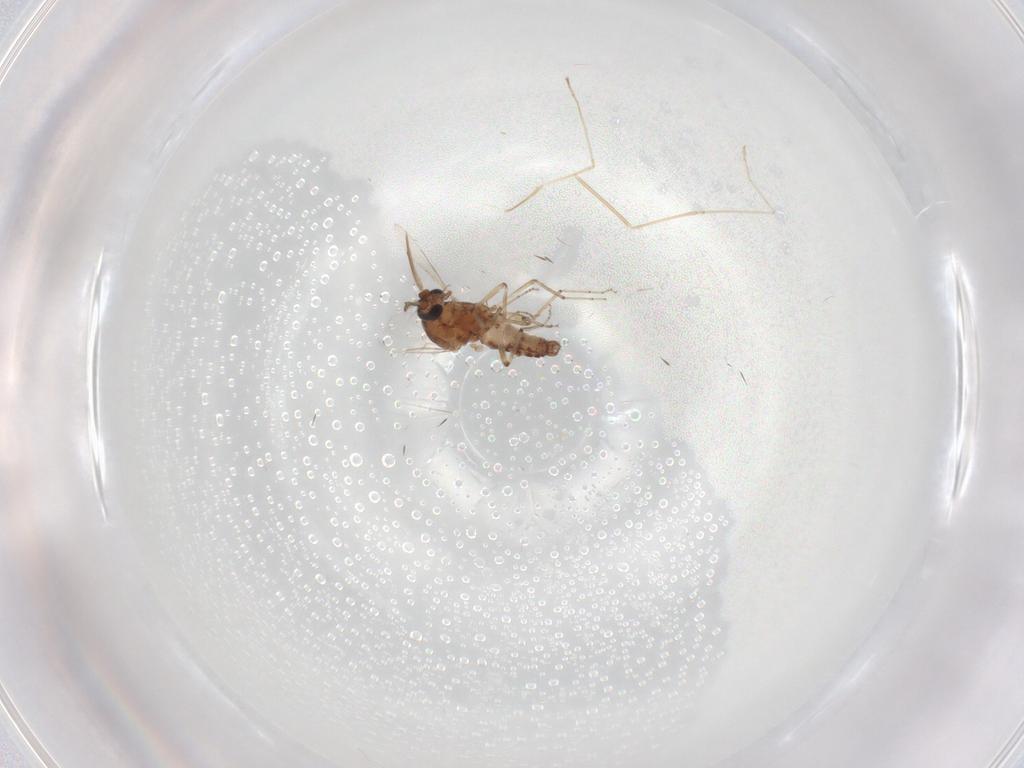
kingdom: Animalia
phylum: Arthropoda
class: Insecta
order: Diptera
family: Ceratopogonidae
